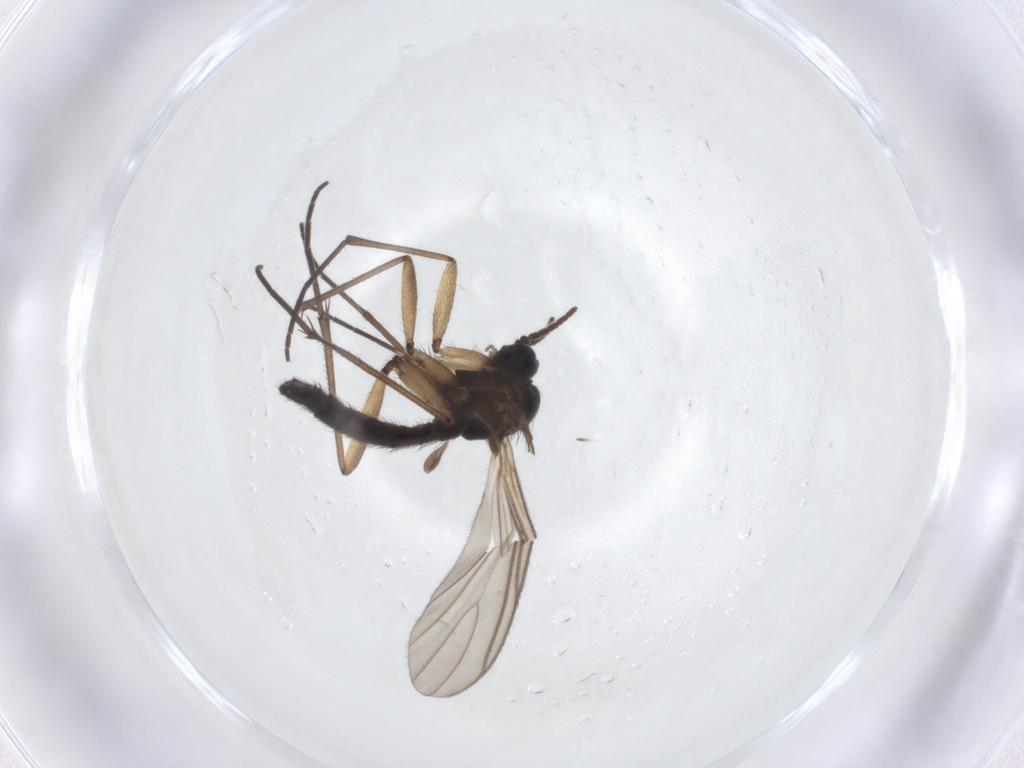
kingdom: Animalia
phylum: Arthropoda
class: Insecta
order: Diptera
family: Sciaridae
